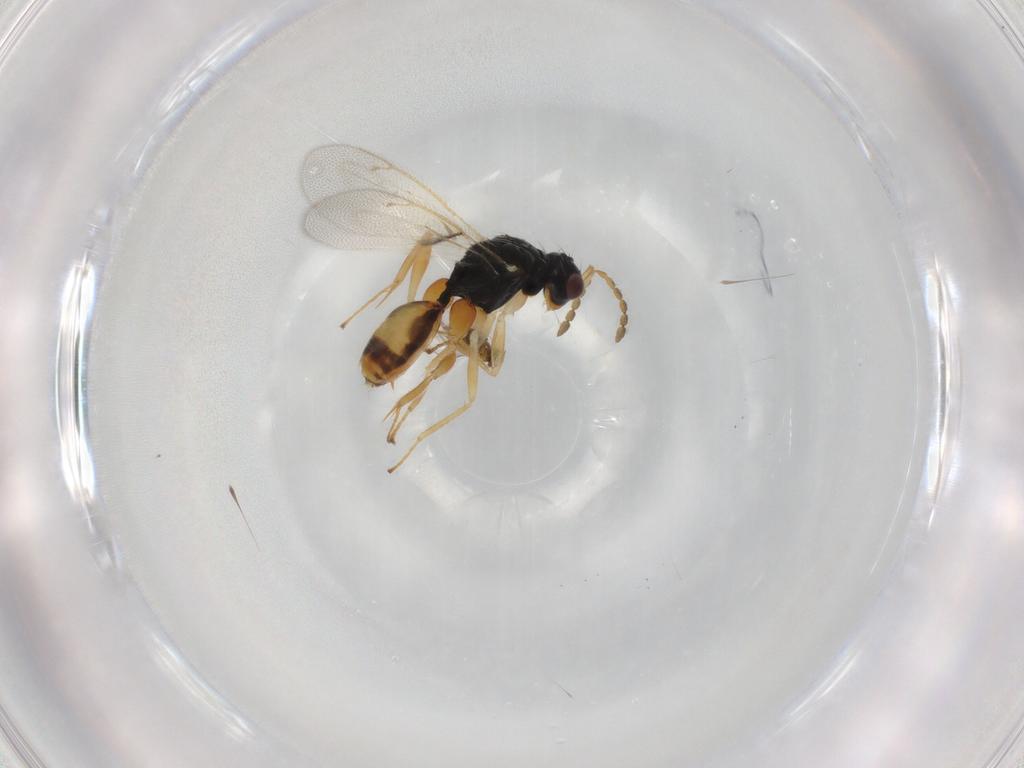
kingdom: Animalia
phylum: Arthropoda
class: Insecta
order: Hymenoptera
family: Eulophidae
